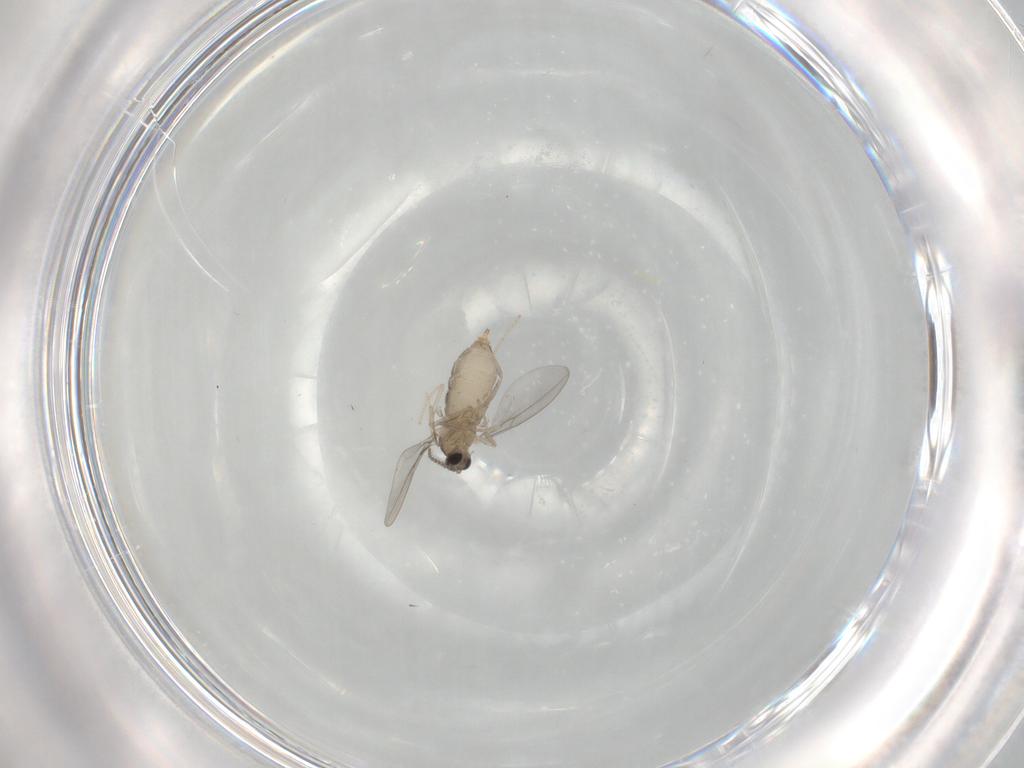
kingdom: Animalia
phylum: Arthropoda
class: Insecta
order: Diptera
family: Cecidomyiidae
